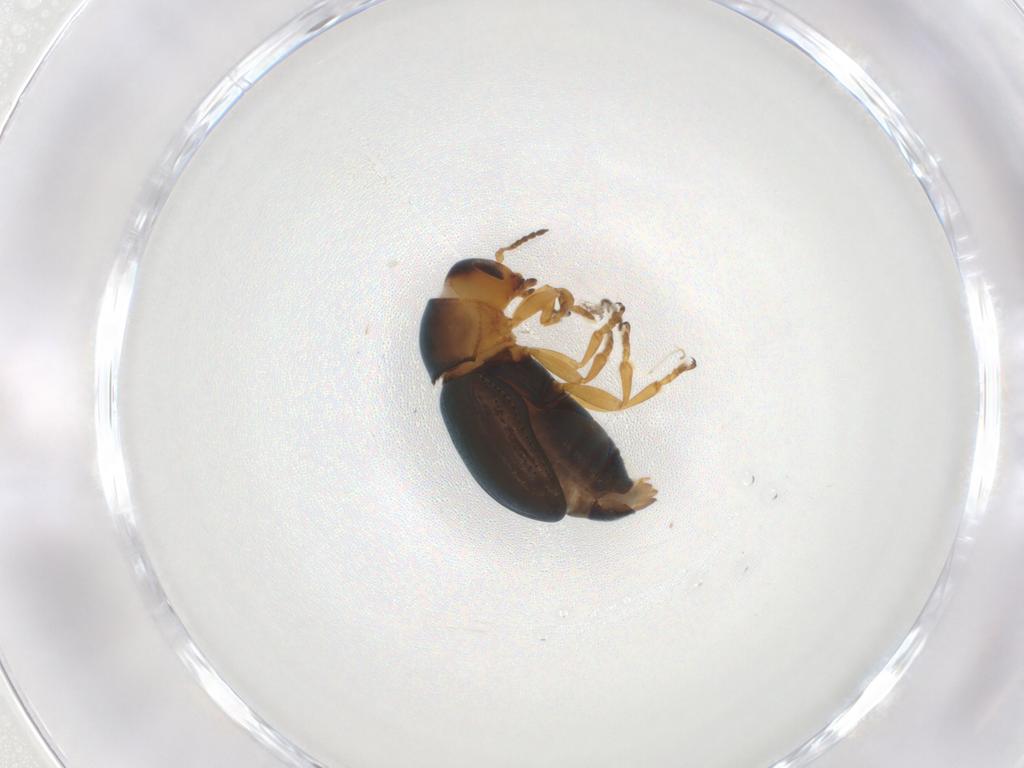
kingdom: Animalia
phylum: Arthropoda
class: Insecta
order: Coleoptera
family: Chrysomelidae
